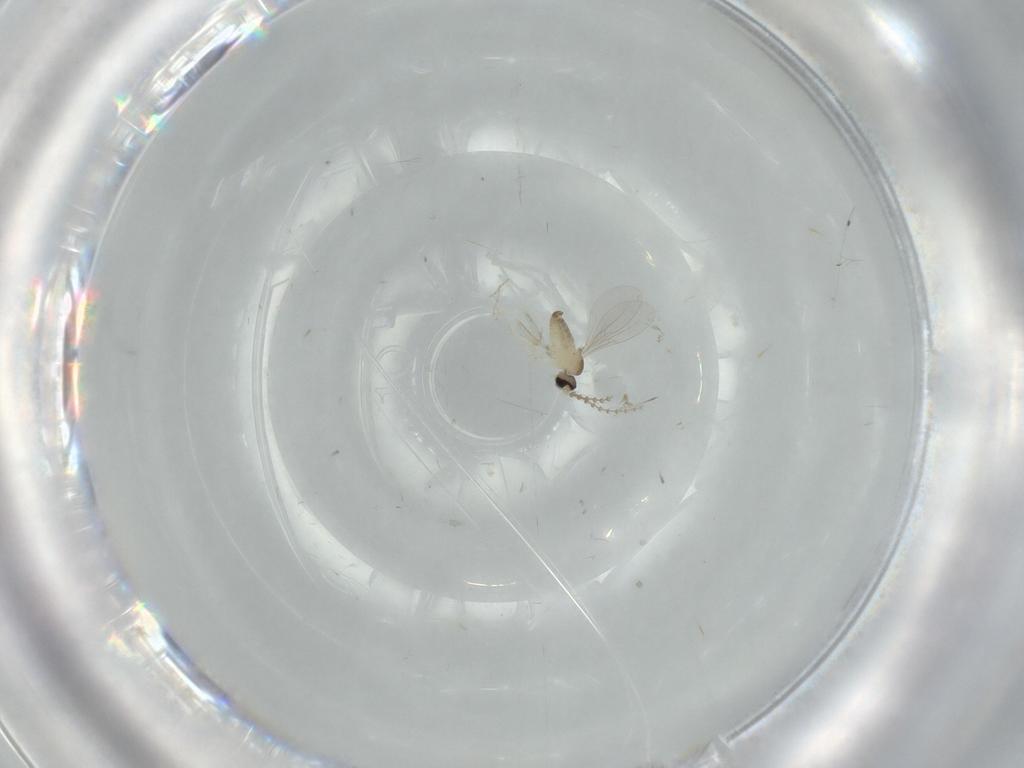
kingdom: Animalia
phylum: Arthropoda
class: Insecta
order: Diptera
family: Cecidomyiidae
